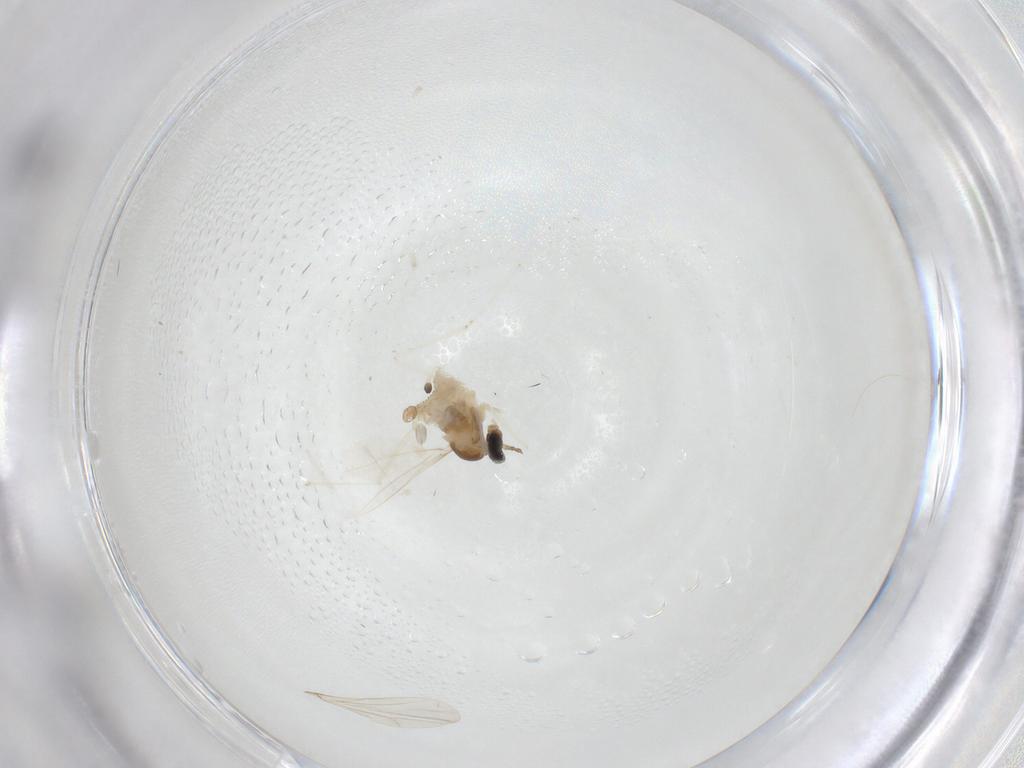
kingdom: Animalia
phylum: Arthropoda
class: Insecta
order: Diptera
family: Cecidomyiidae
